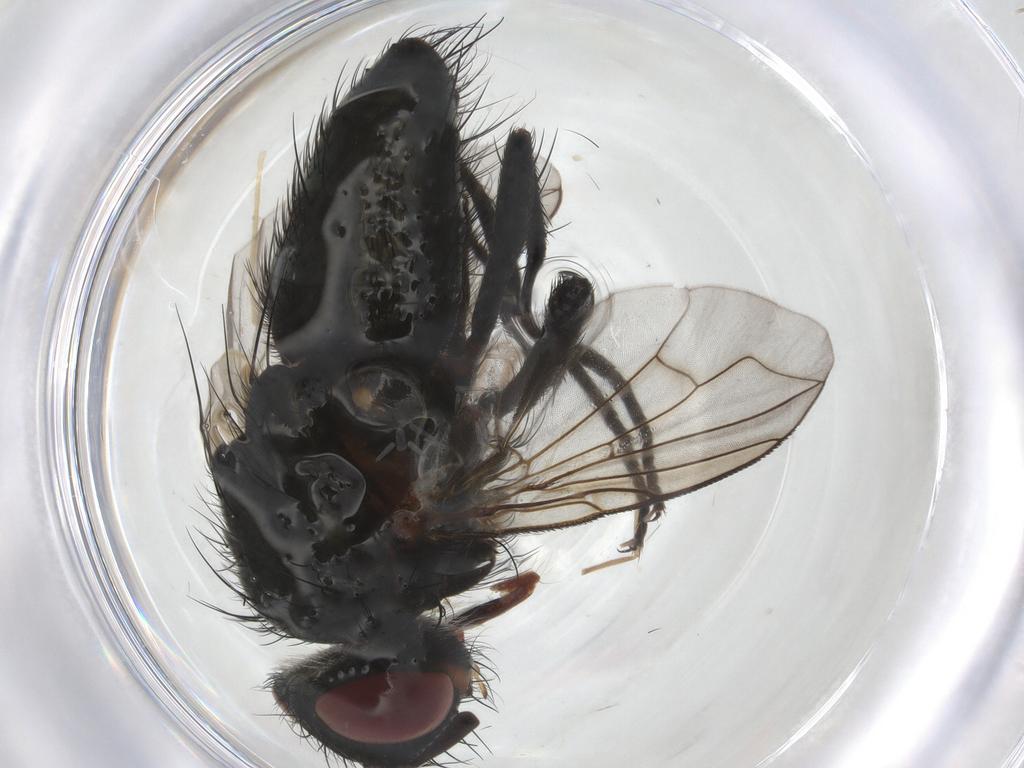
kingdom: Animalia
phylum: Arthropoda
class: Insecta
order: Diptera
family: Tachinidae
